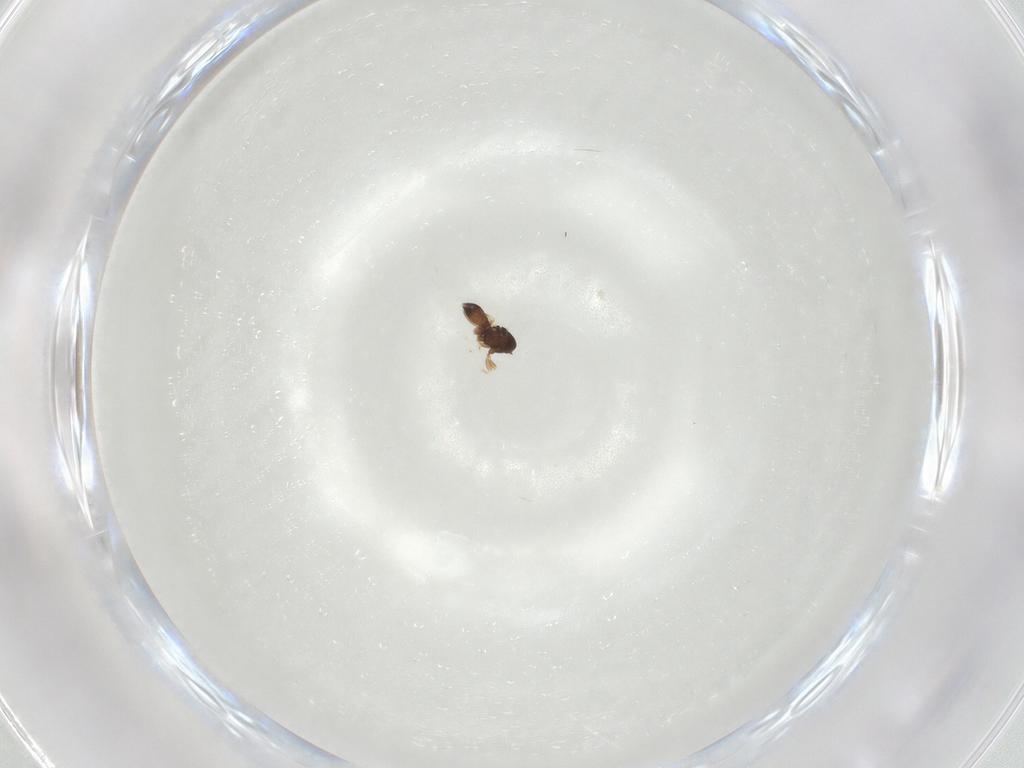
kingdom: Animalia
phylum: Arthropoda
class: Insecta
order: Hymenoptera
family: Scelionidae
